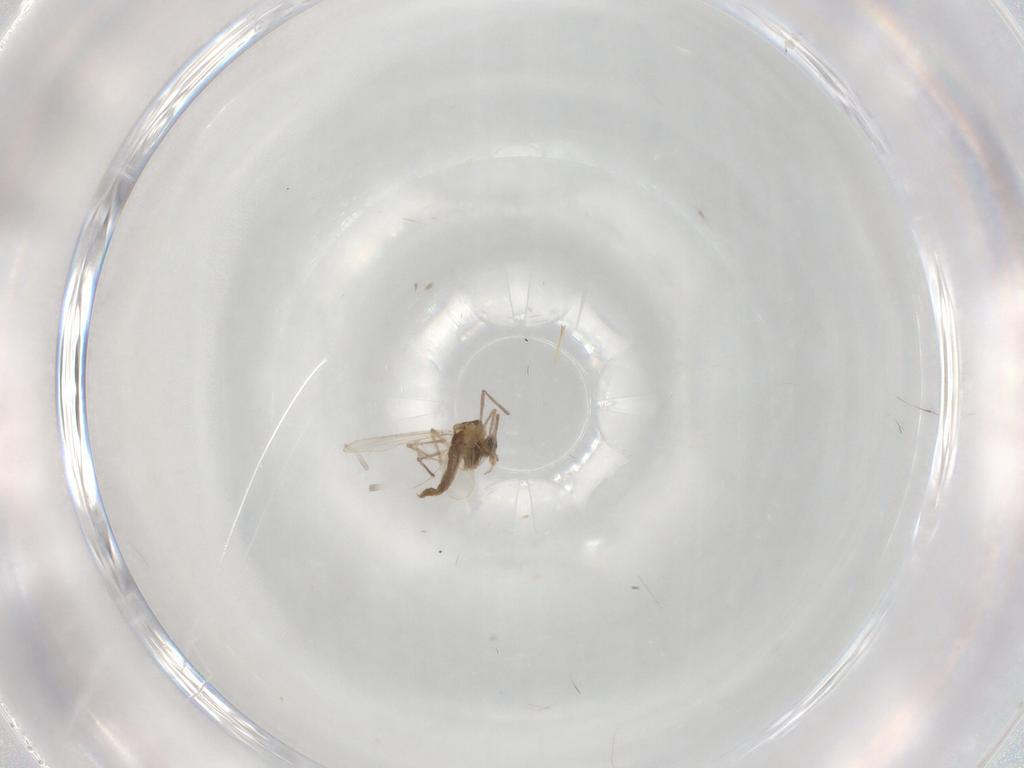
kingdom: Animalia
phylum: Arthropoda
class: Insecta
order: Diptera
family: Chironomidae
